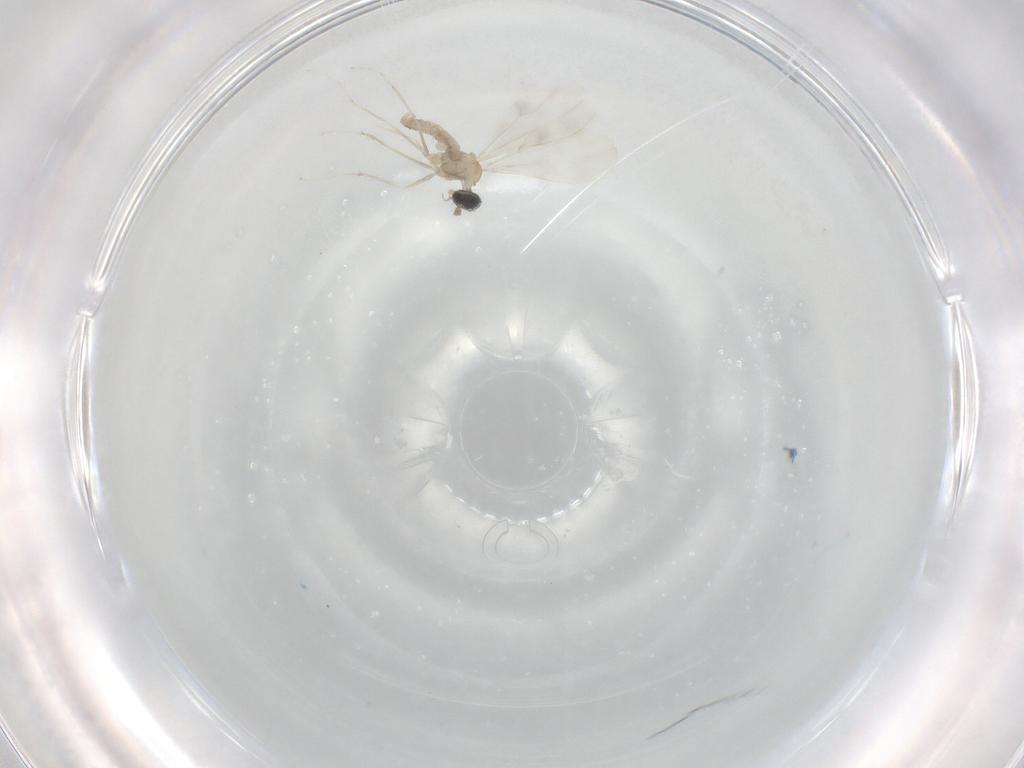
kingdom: Animalia
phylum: Arthropoda
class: Insecta
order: Diptera
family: Cecidomyiidae
